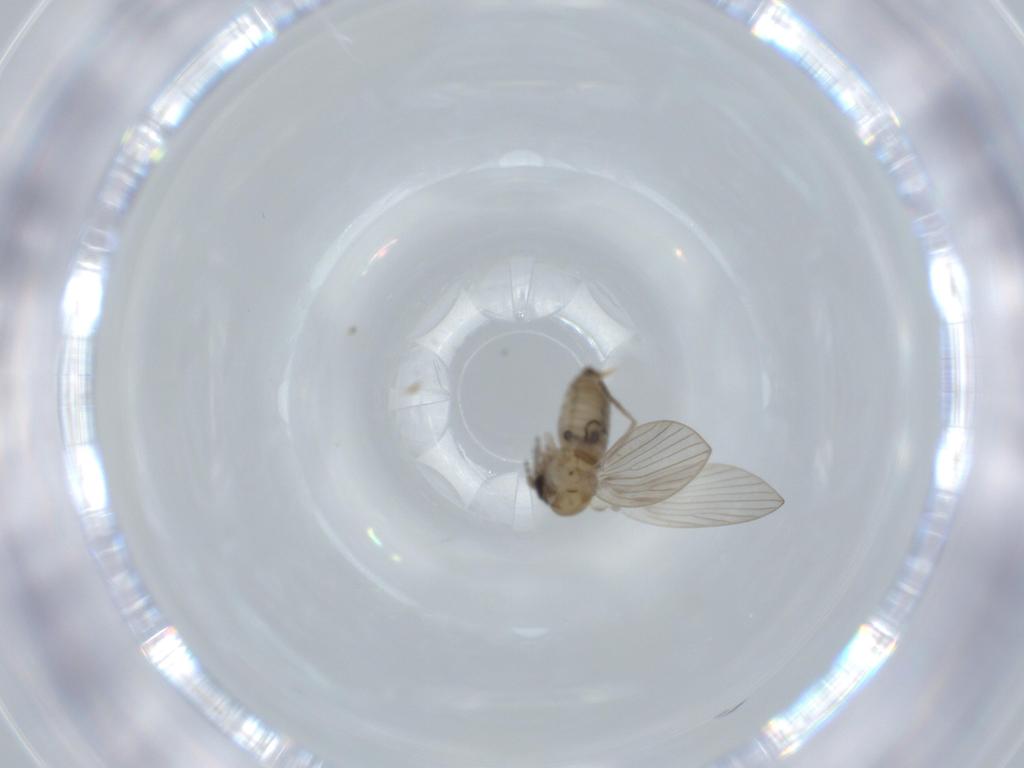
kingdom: Animalia
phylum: Arthropoda
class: Insecta
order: Diptera
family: Psychodidae
